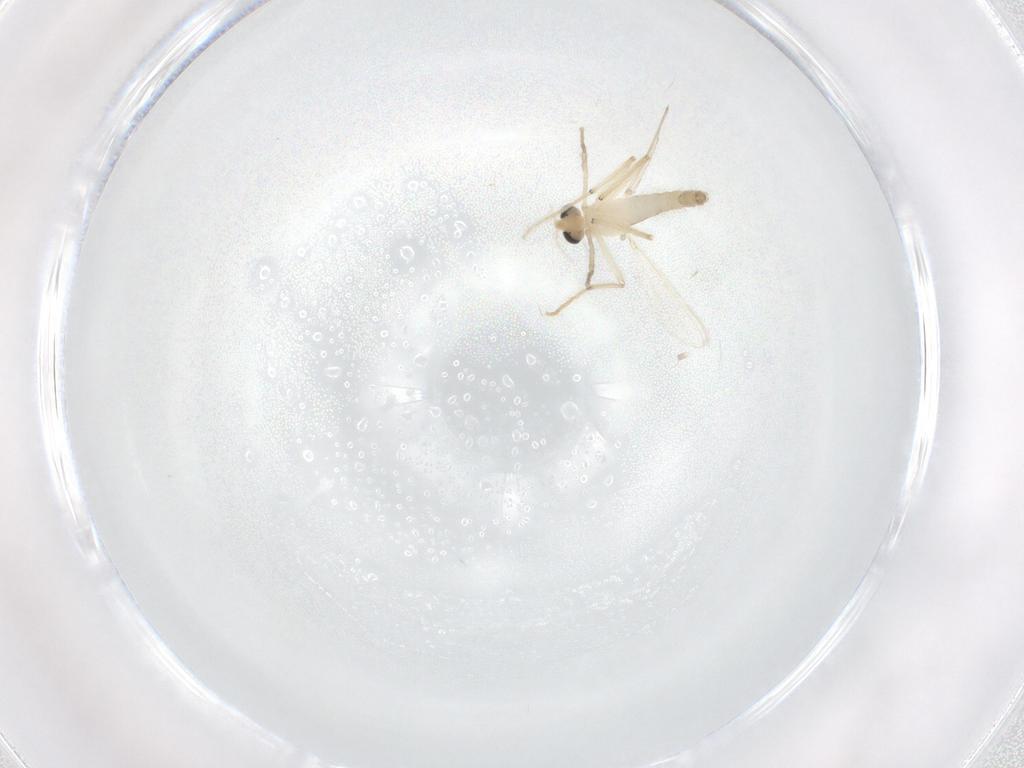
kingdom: Animalia
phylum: Arthropoda
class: Insecta
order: Diptera
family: Chironomidae
